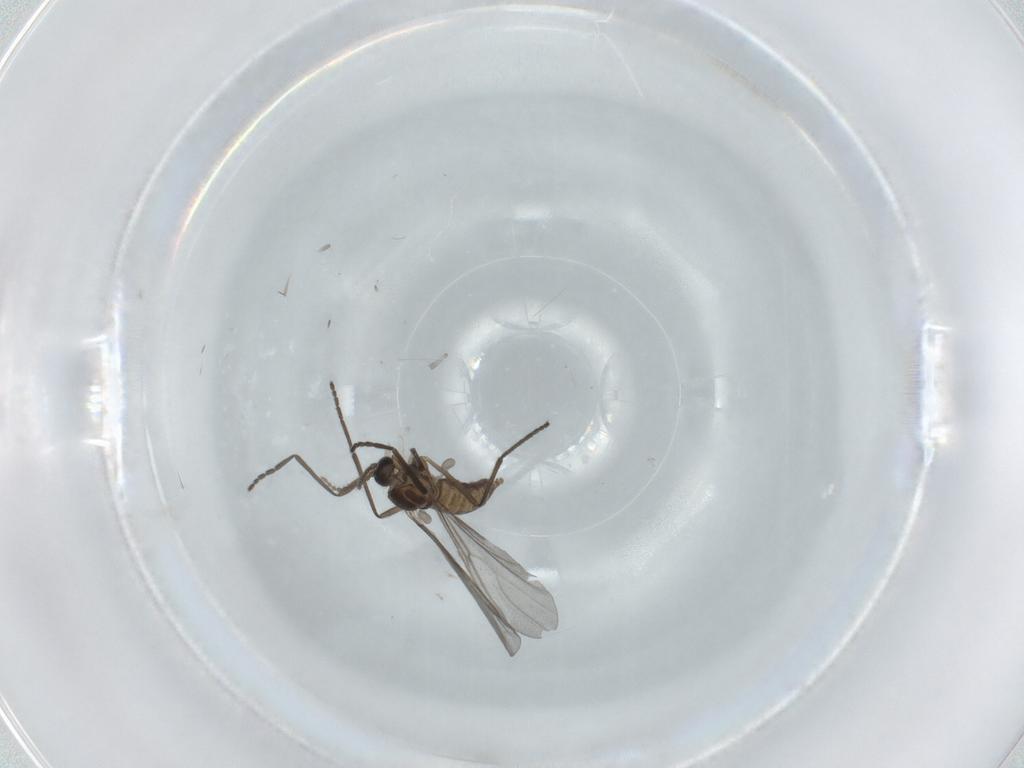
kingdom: Animalia
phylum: Arthropoda
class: Insecta
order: Diptera
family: Cecidomyiidae
